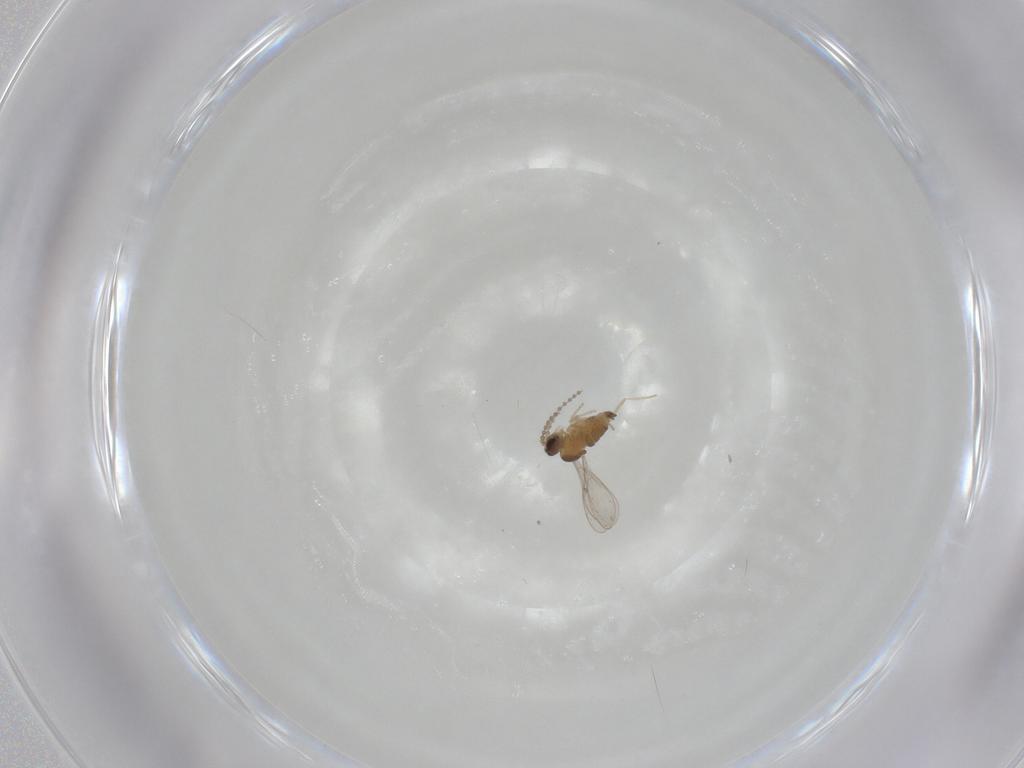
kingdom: Animalia
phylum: Arthropoda
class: Insecta
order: Diptera
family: Cecidomyiidae
